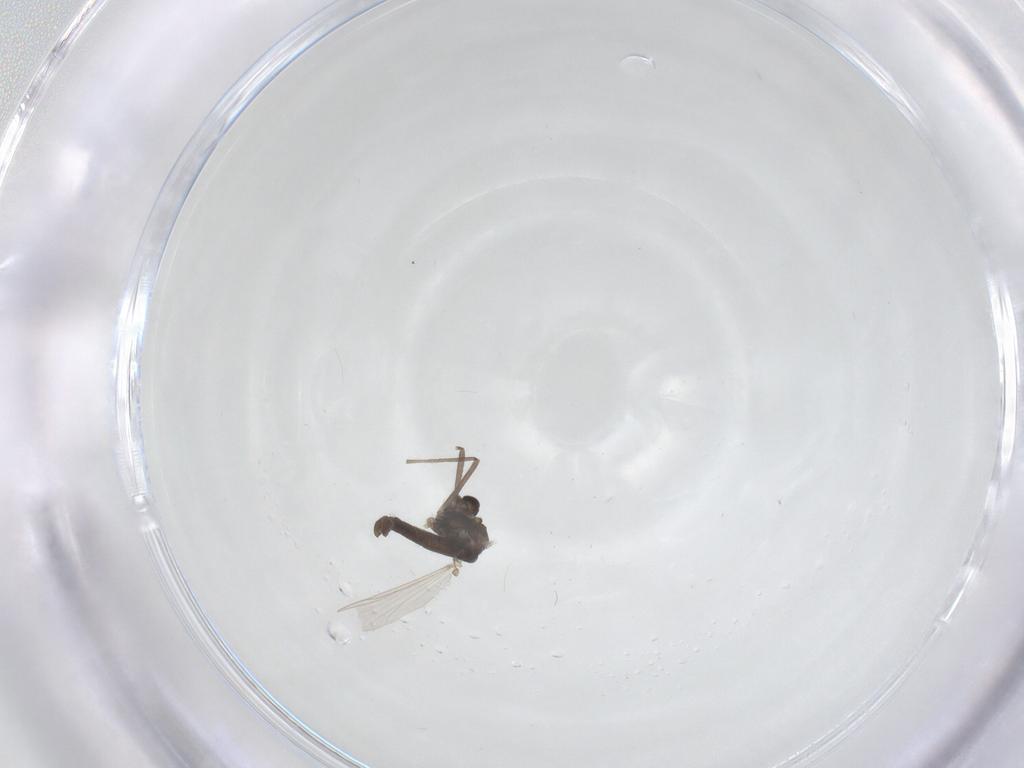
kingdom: Animalia
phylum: Arthropoda
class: Insecta
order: Diptera
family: Chironomidae
